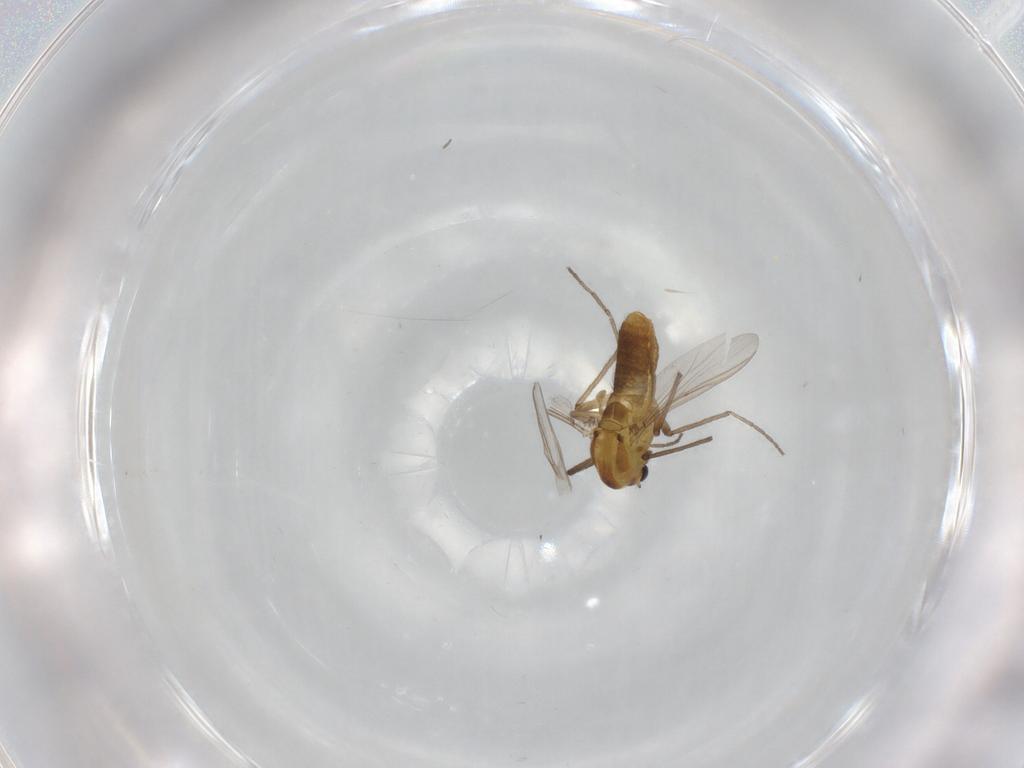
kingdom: Animalia
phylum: Arthropoda
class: Insecta
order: Diptera
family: Chironomidae
